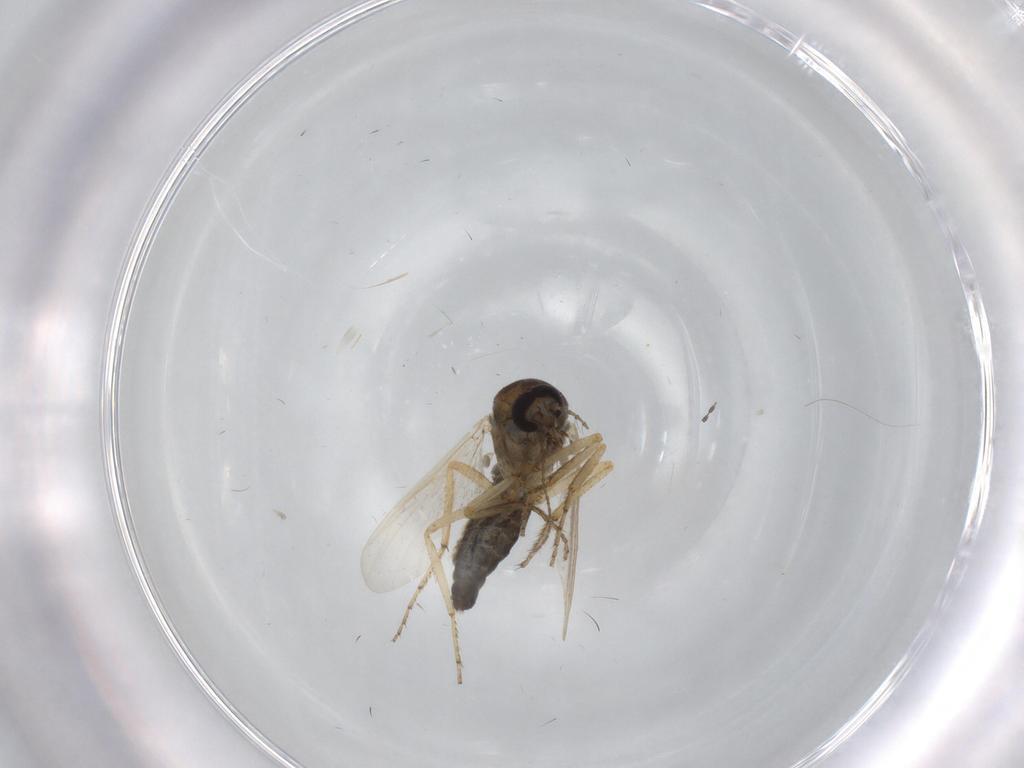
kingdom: Animalia
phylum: Arthropoda
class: Insecta
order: Diptera
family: Ceratopogonidae
